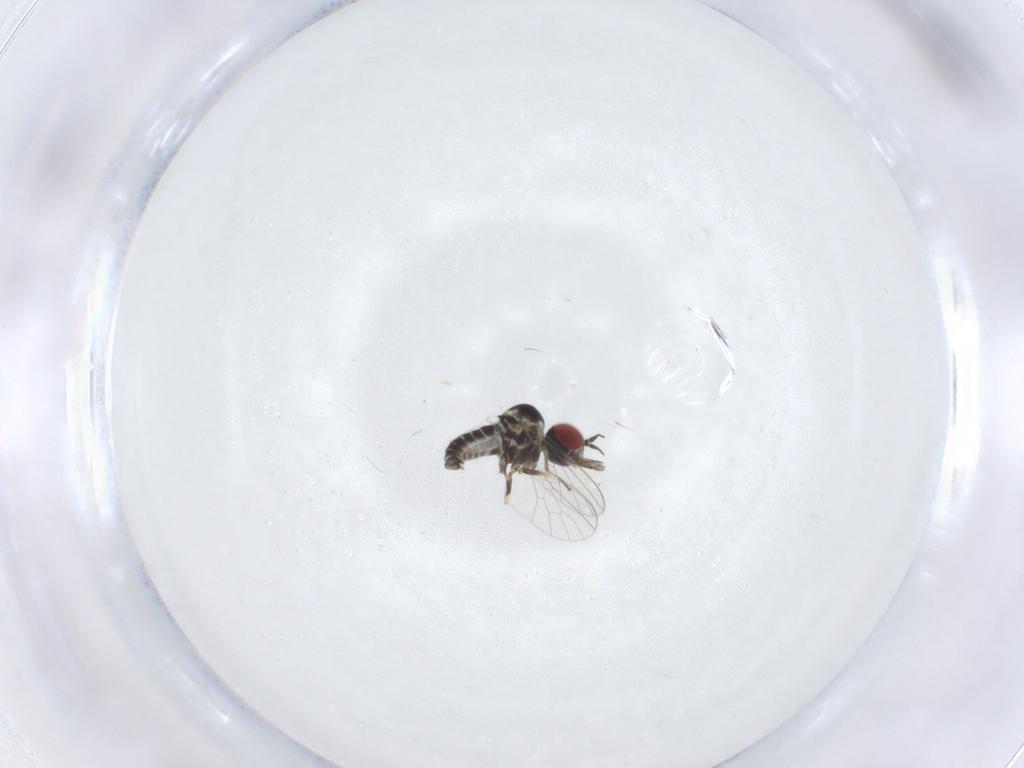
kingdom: Animalia
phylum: Arthropoda
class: Insecta
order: Diptera
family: Mythicomyiidae
